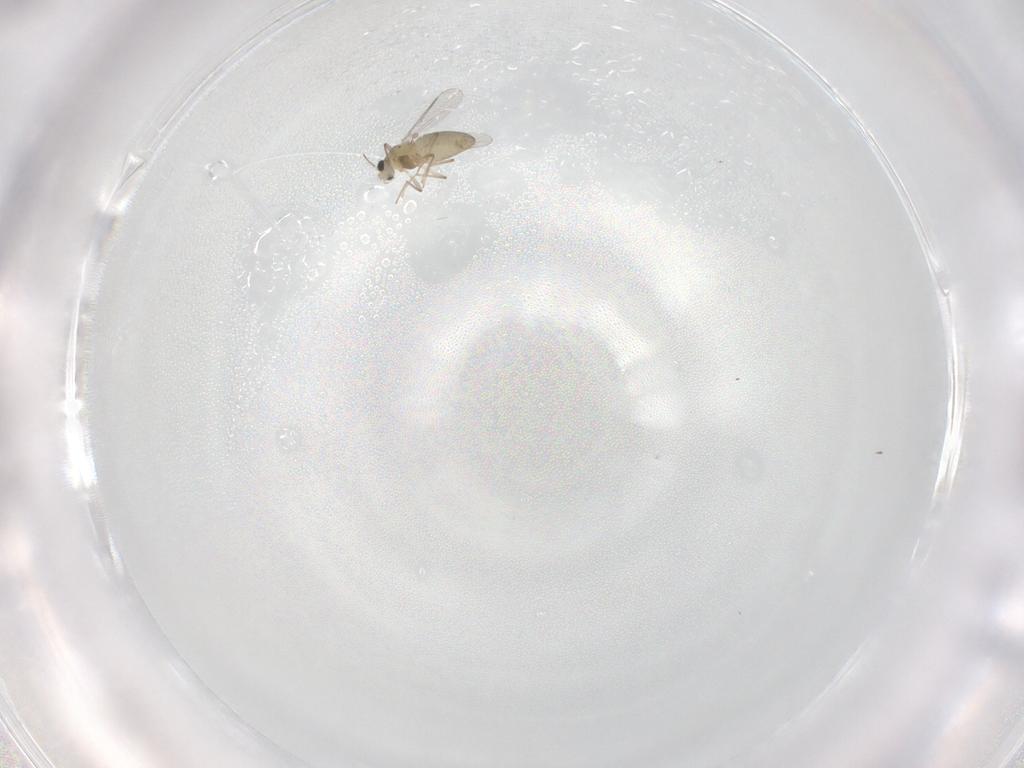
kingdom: Animalia
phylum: Arthropoda
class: Insecta
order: Diptera
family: Chironomidae
